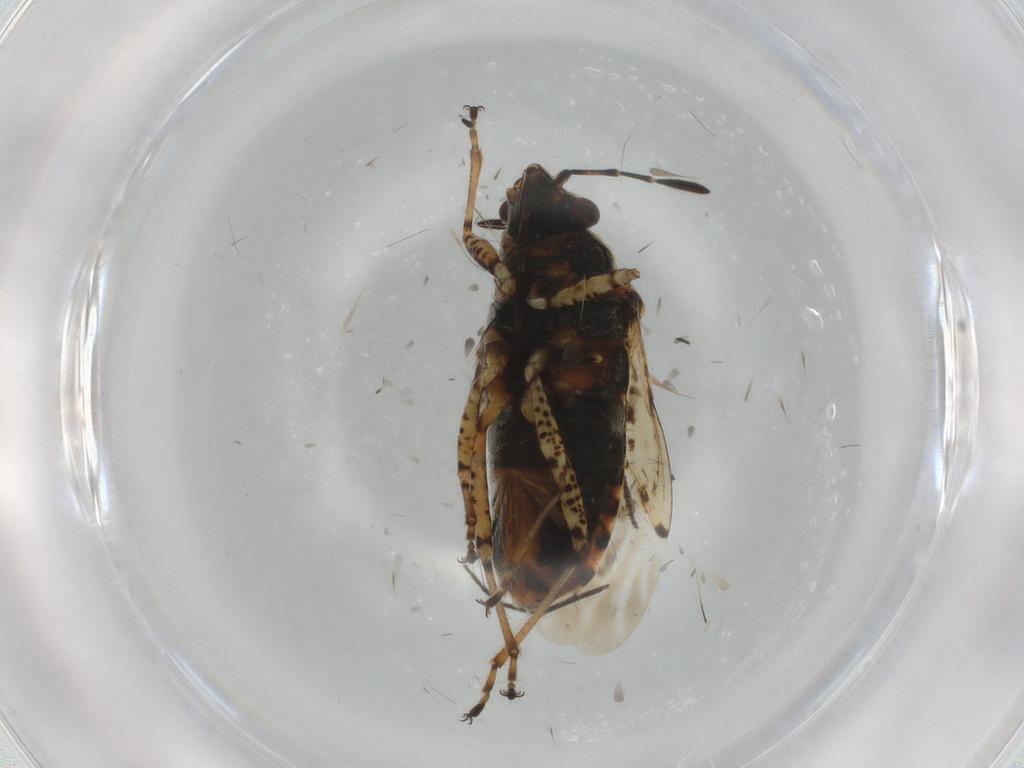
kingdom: Animalia
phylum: Arthropoda
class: Insecta
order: Hemiptera
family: Lygaeidae
